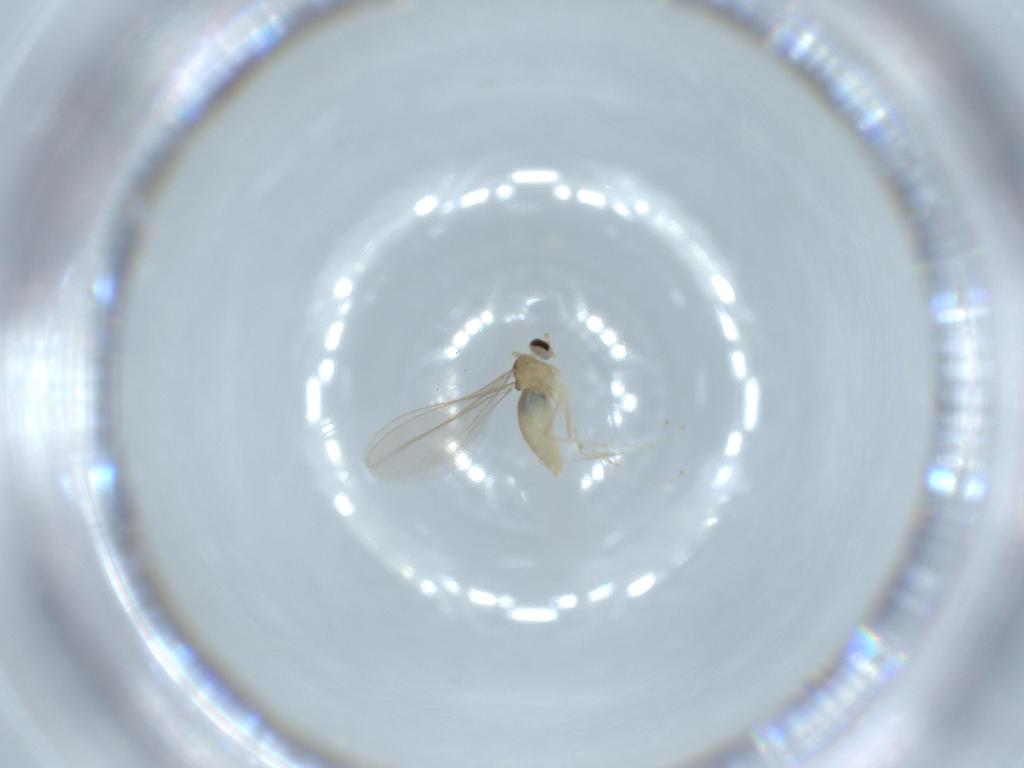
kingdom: Animalia
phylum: Arthropoda
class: Insecta
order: Diptera
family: Cecidomyiidae
